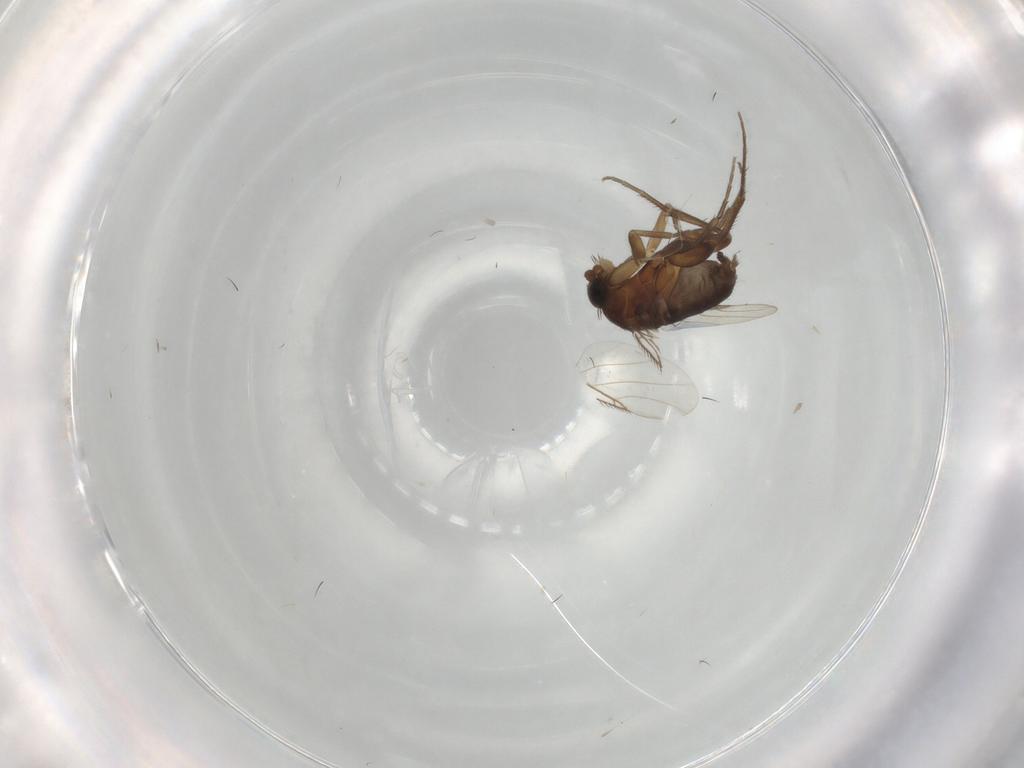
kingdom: Animalia
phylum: Arthropoda
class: Insecta
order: Diptera
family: Phoridae
